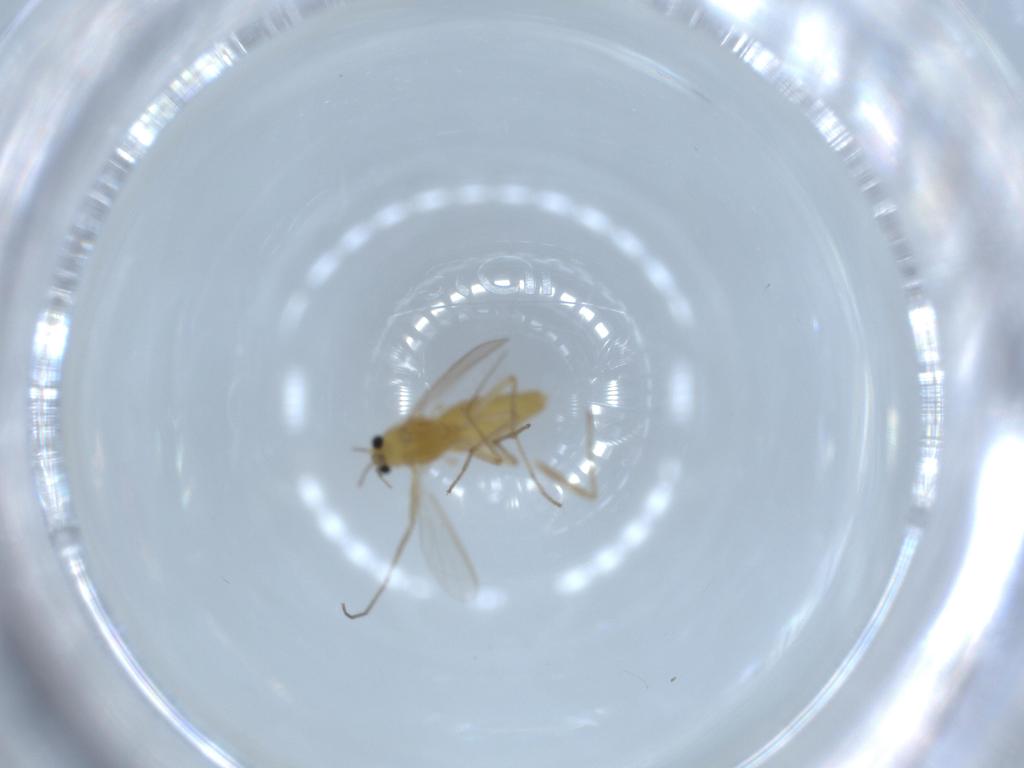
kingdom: Animalia
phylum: Arthropoda
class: Insecta
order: Diptera
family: Chironomidae
